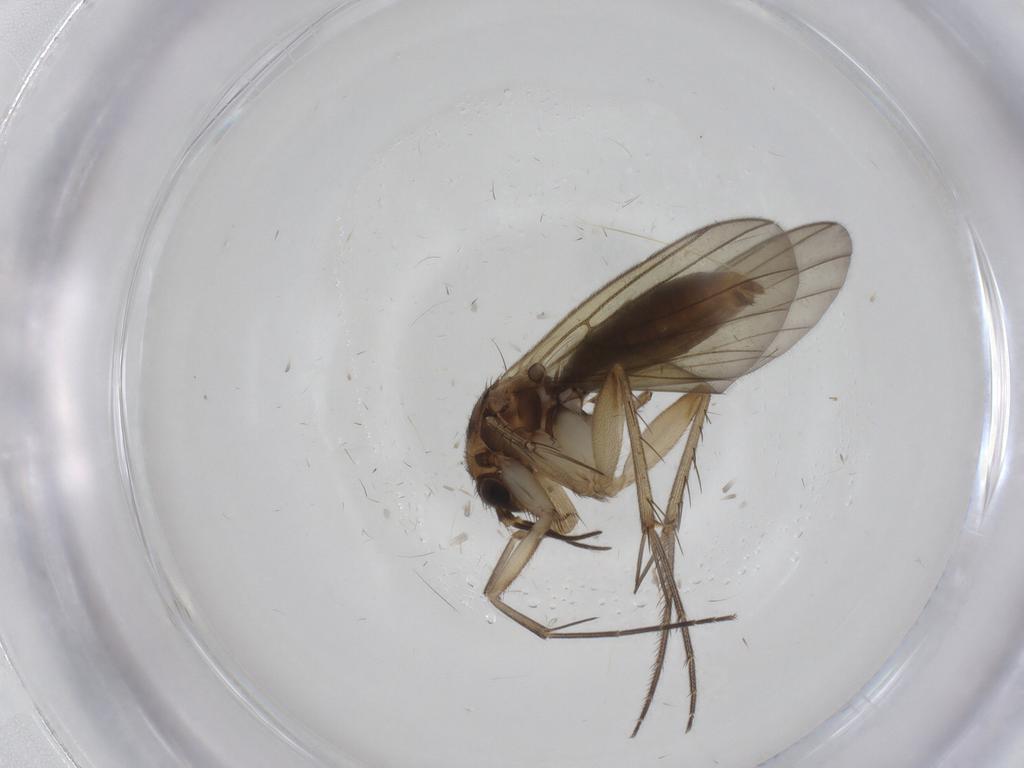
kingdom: Animalia
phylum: Arthropoda
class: Insecta
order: Diptera
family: Mycetophilidae
